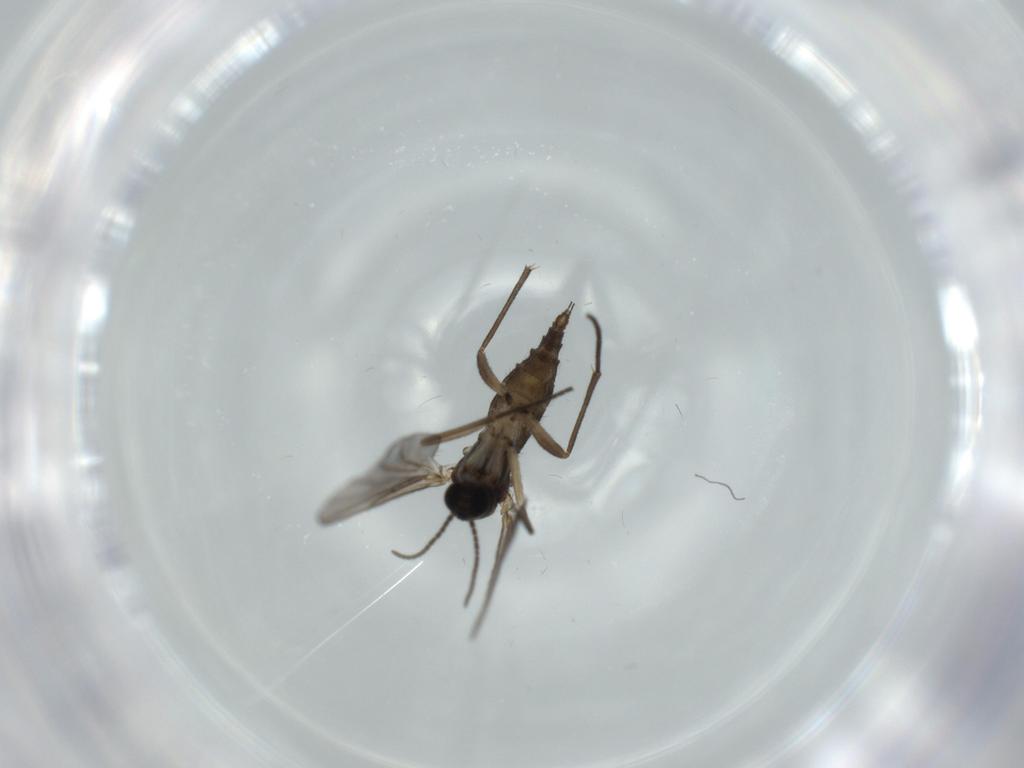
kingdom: Animalia
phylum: Arthropoda
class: Insecta
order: Diptera
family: Sciaridae
